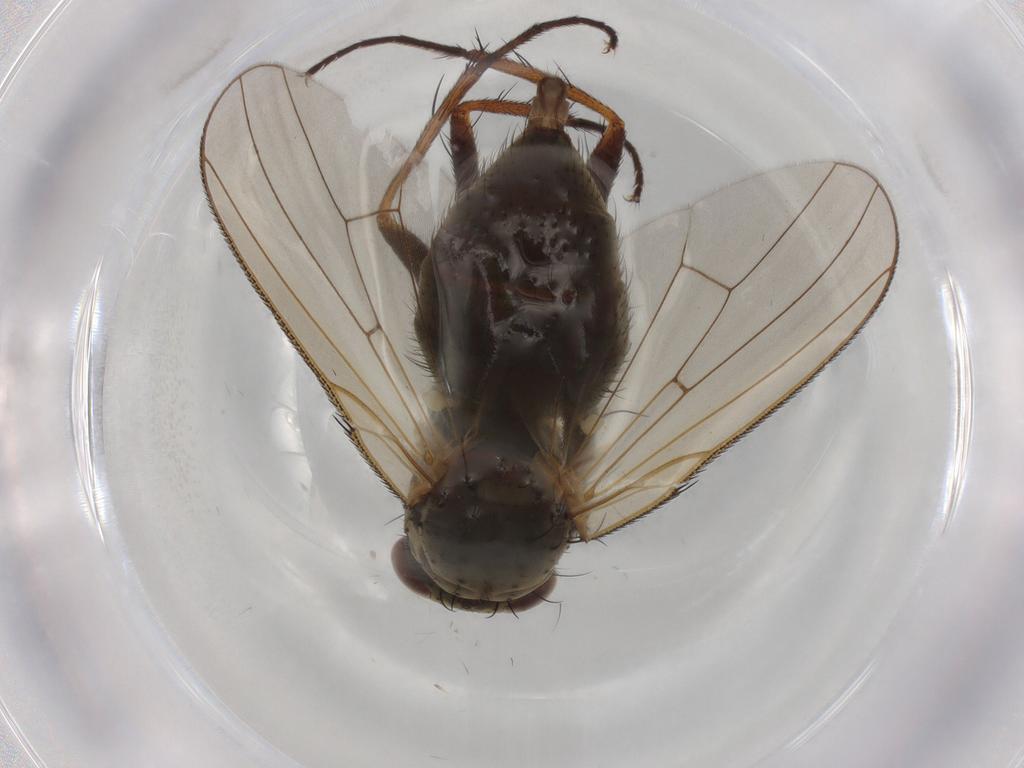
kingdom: Animalia
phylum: Arthropoda
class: Insecta
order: Diptera
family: Anthomyiidae
